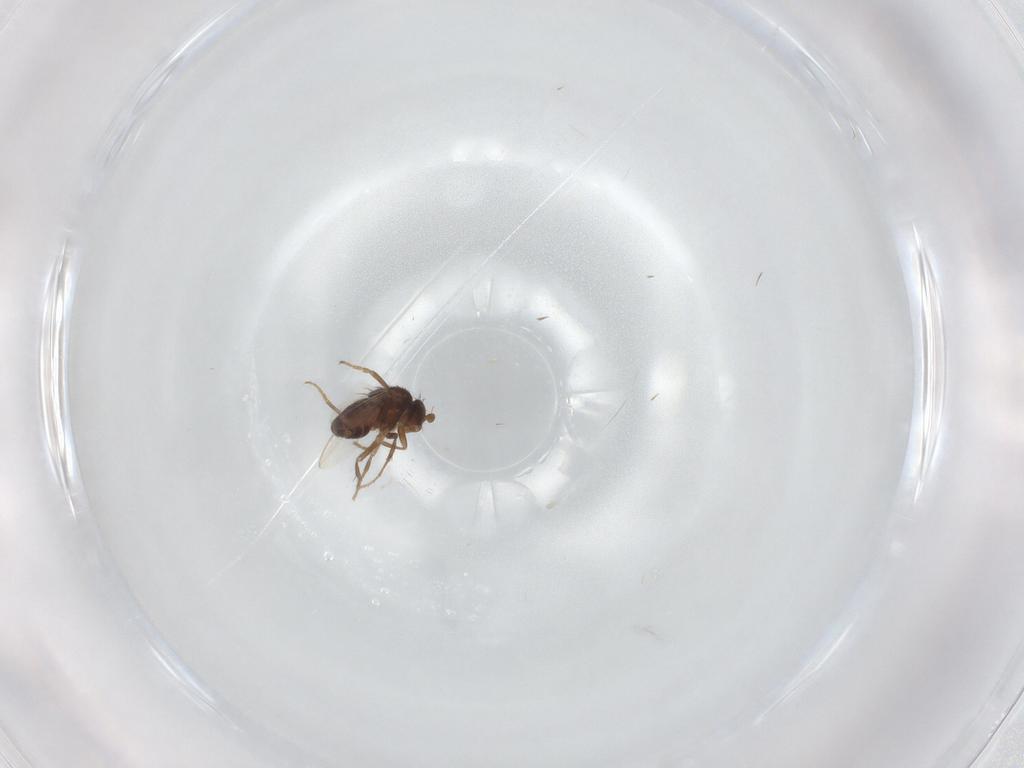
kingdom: Animalia
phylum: Arthropoda
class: Insecta
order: Diptera
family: Sphaeroceridae
